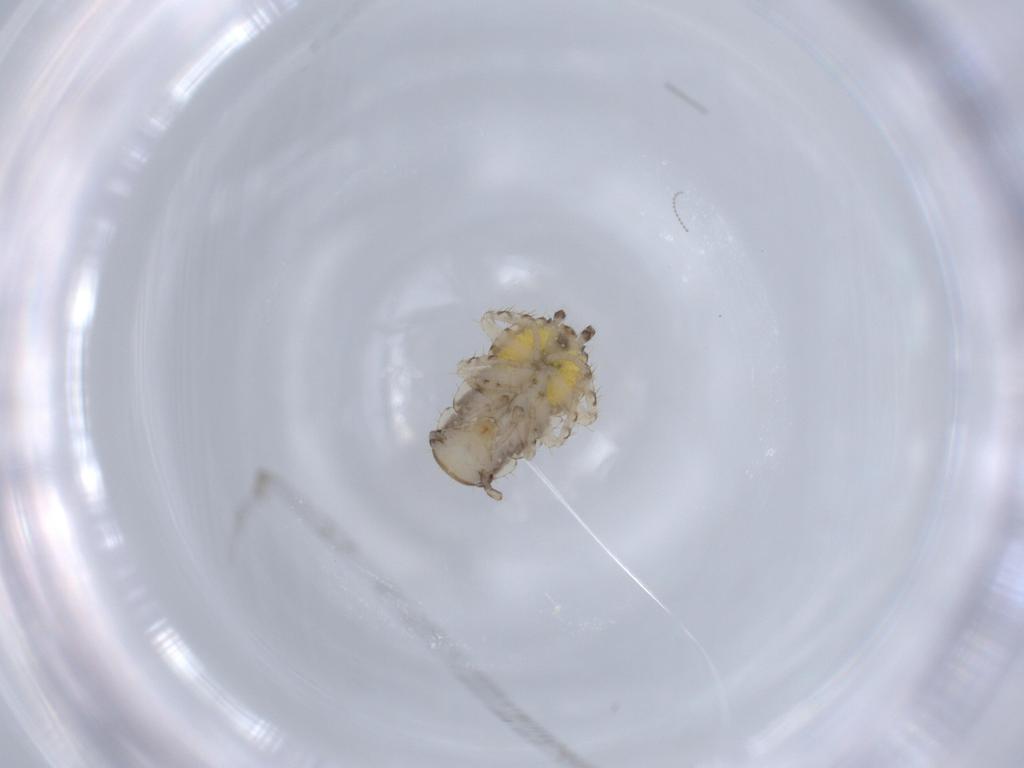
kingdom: Animalia
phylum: Arthropoda
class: Insecta
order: Blattodea
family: Ectobiidae
